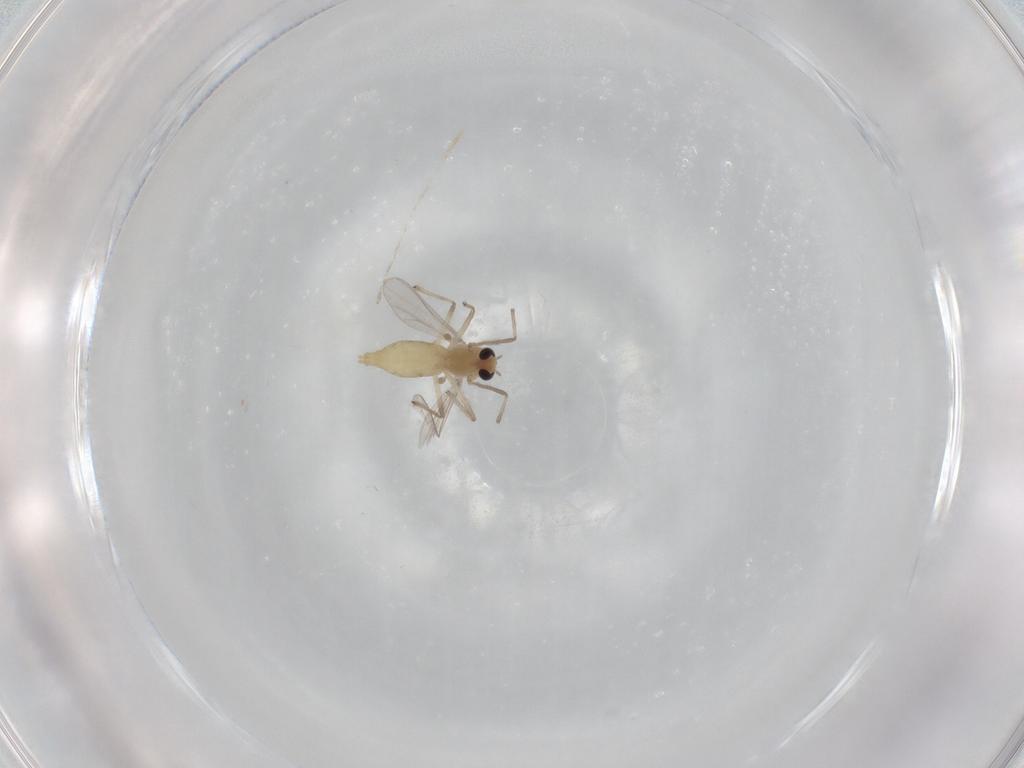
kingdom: Animalia
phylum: Arthropoda
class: Insecta
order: Diptera
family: Chironomidae
